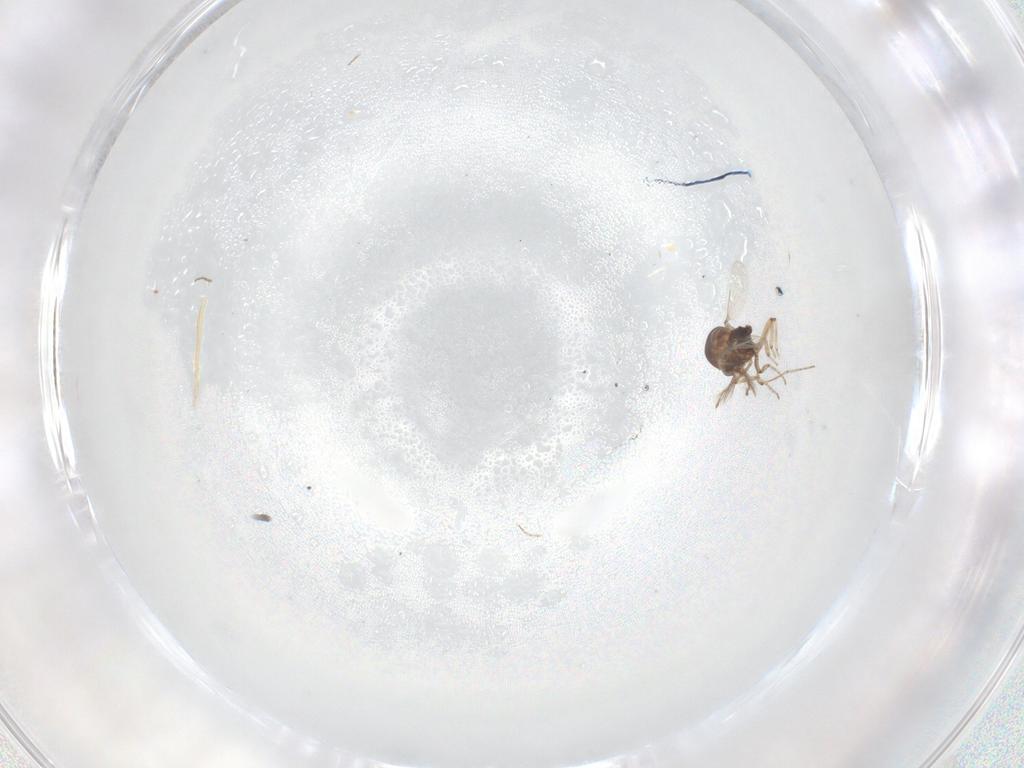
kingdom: Animalia
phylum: Arthropoda
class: Insecta
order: Diptera
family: Ceratopogonidae
